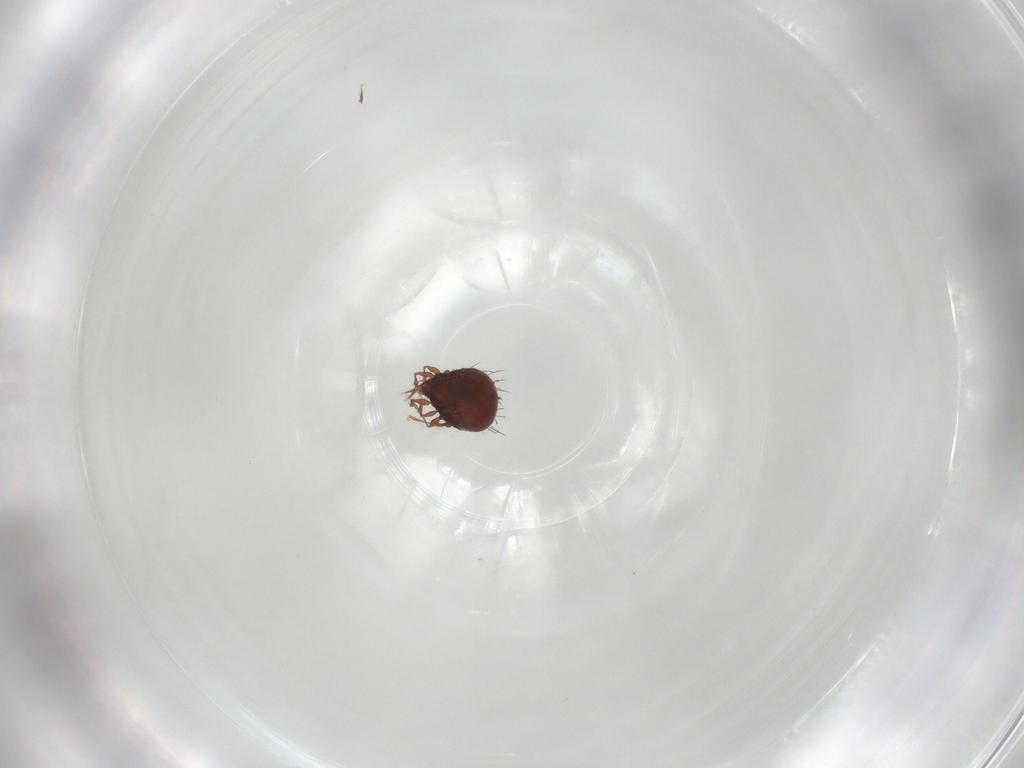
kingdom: Animalia
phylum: Arthropoda
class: Arachnida
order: Sarcoptiformes
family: Caloppiidae
